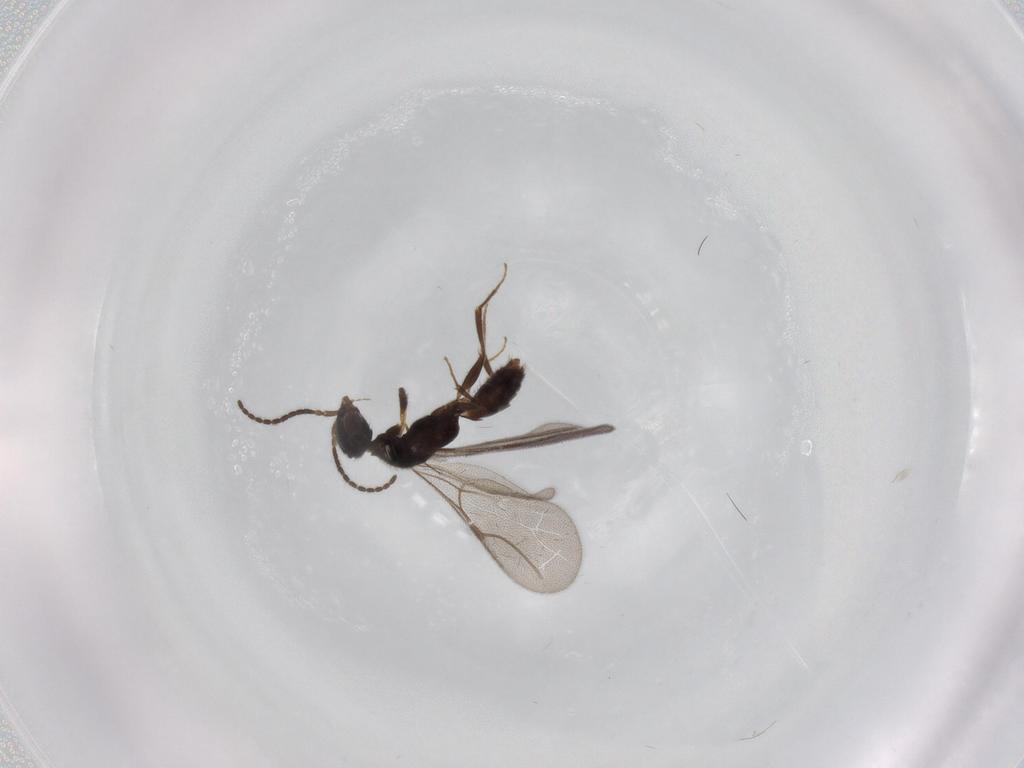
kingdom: Animalia
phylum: Arthropoda
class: Insecta
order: Hymenoptera
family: Bethylidae
